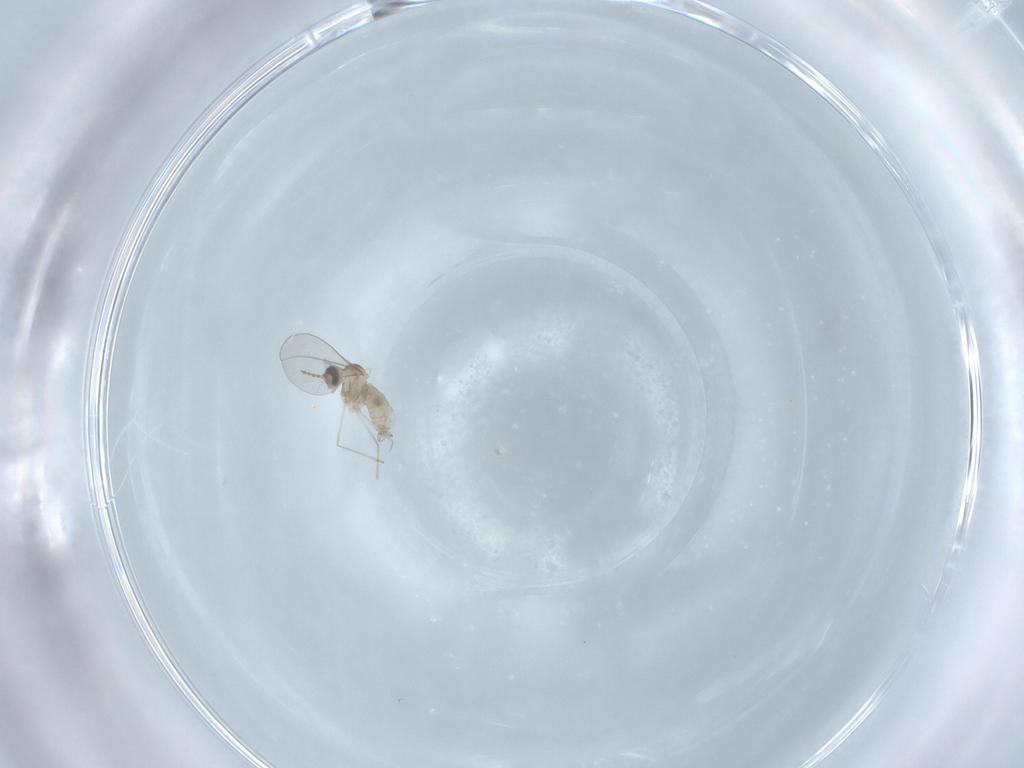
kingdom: Animalia
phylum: Arthropoda
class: Insecta
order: Diptera
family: Cecidomyiidae
